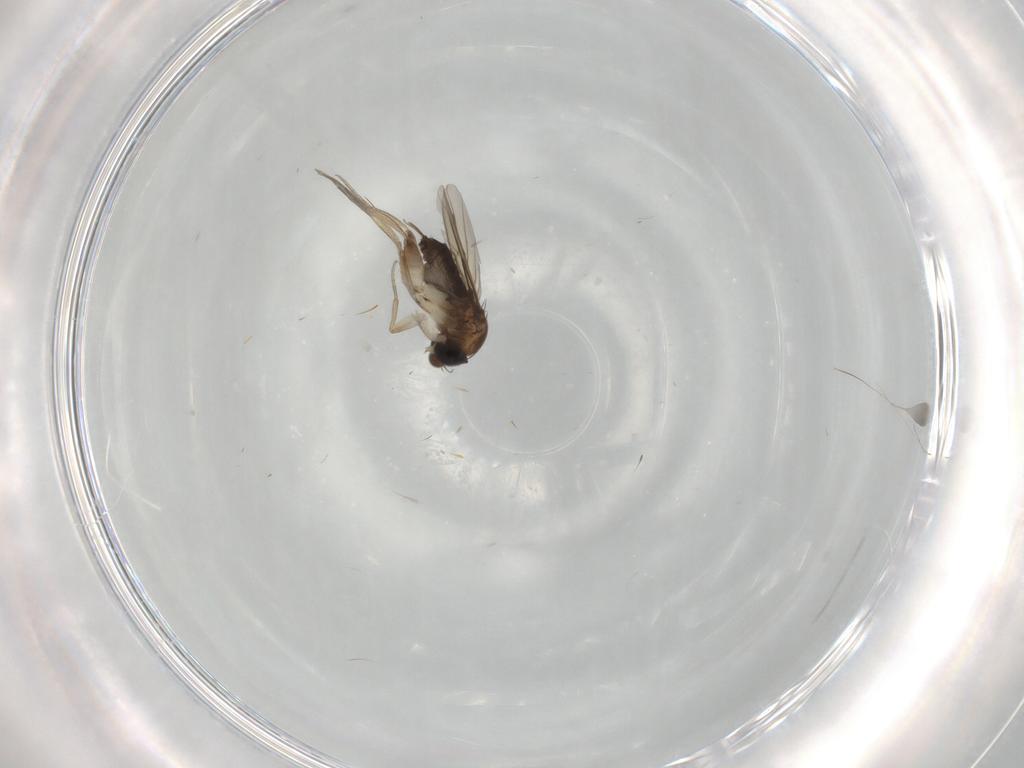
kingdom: Animalia
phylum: Arthropoda
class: Insecta
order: Diptera
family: Phoridae
